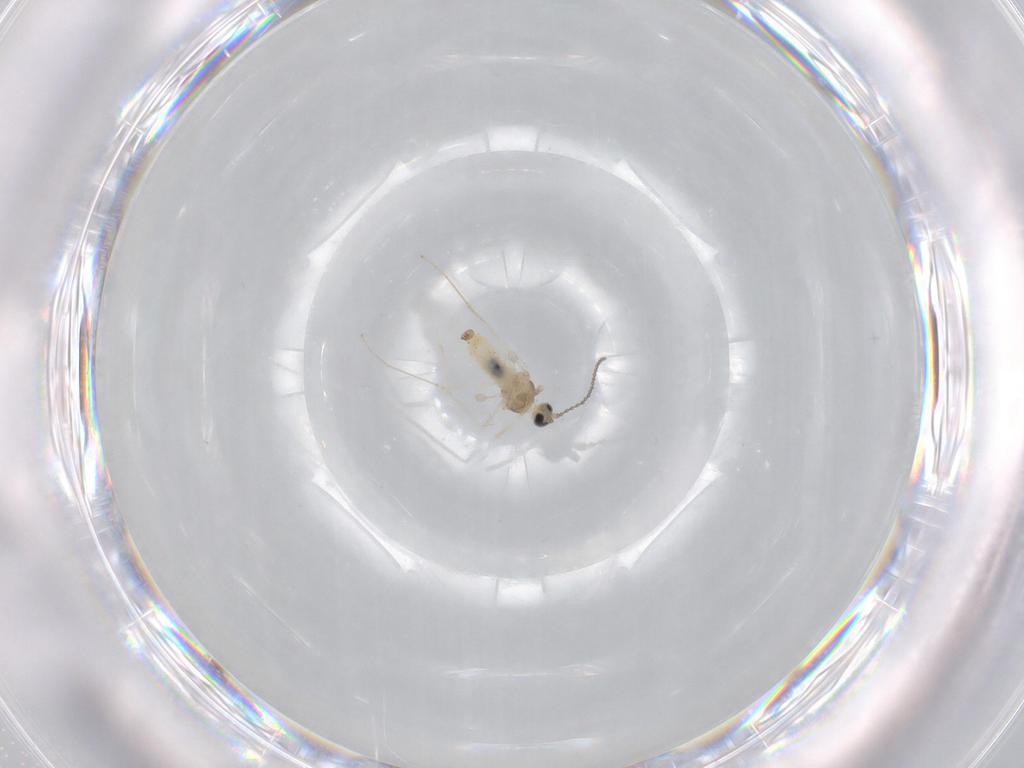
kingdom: Animalia
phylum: Arthropoda
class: Insecta
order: Diptera
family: Cecidomyiidae
